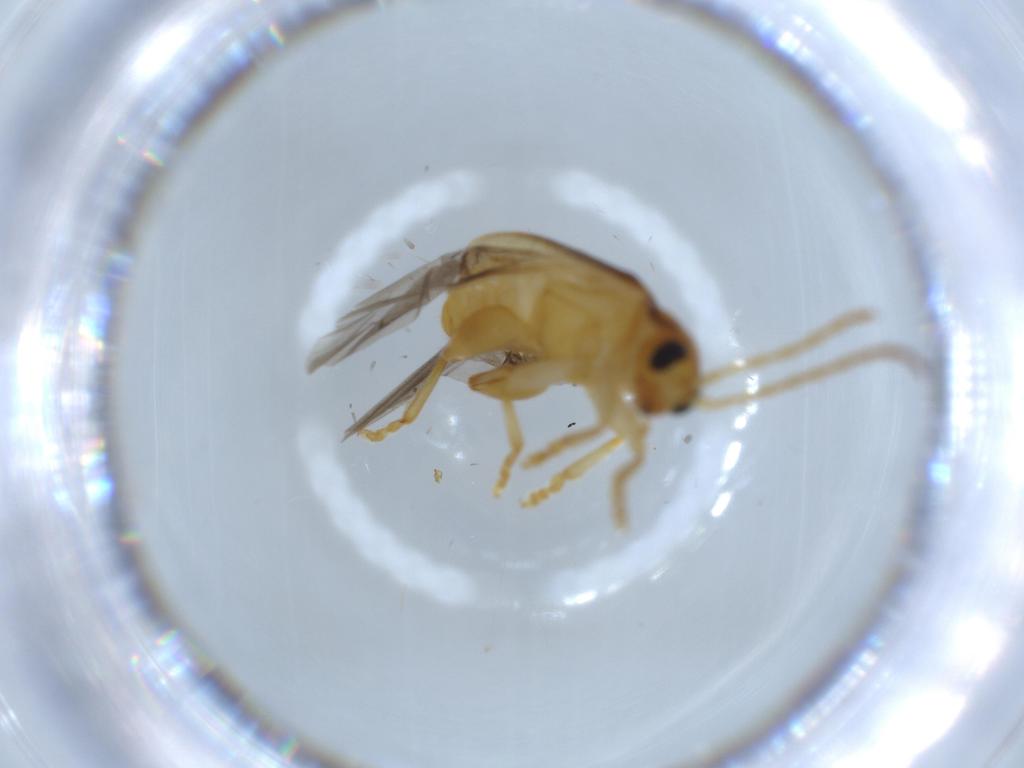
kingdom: Animalia
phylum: Arthropoda
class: Insecta
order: Coleoptera
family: Chrysomelidae
